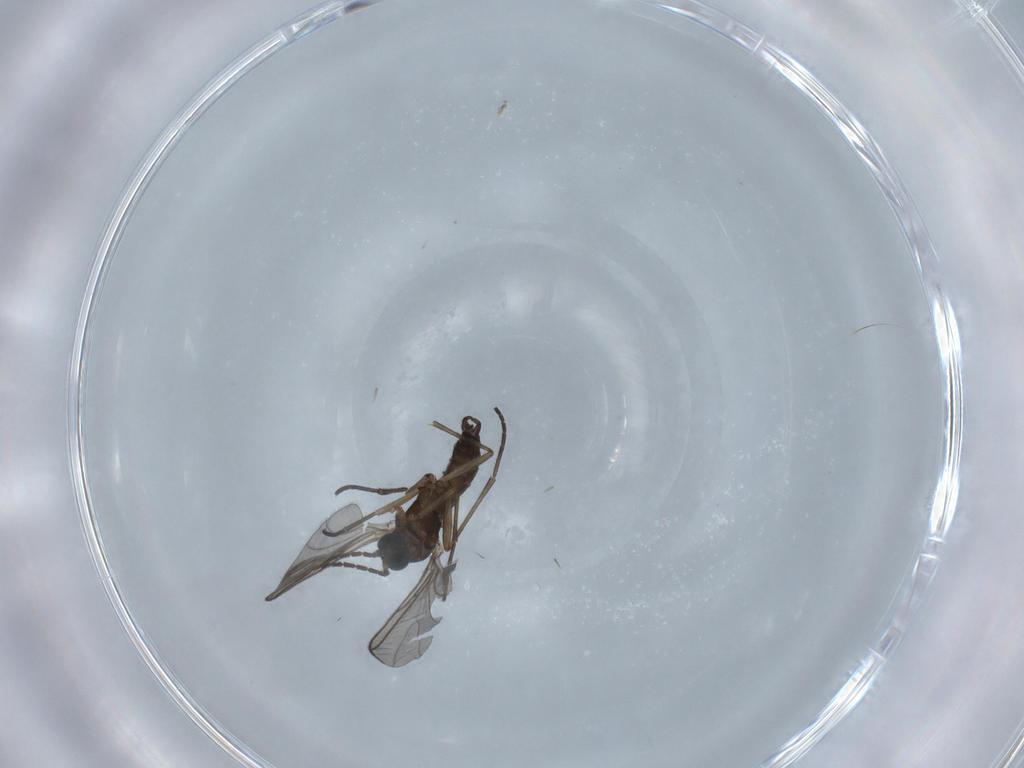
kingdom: Animalia
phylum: Arthropoda
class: Insecta
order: Diptera
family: Sciaridae
